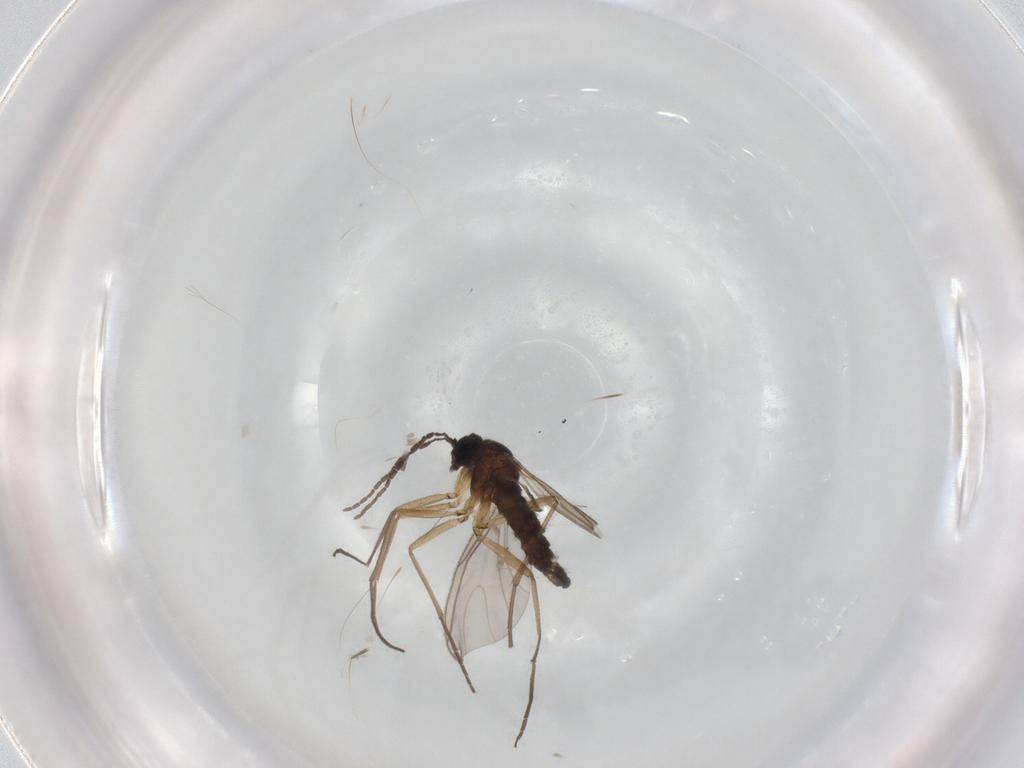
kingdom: Animalia
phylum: Arthropoda
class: Insecta
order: Diptera
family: Sciaridae
